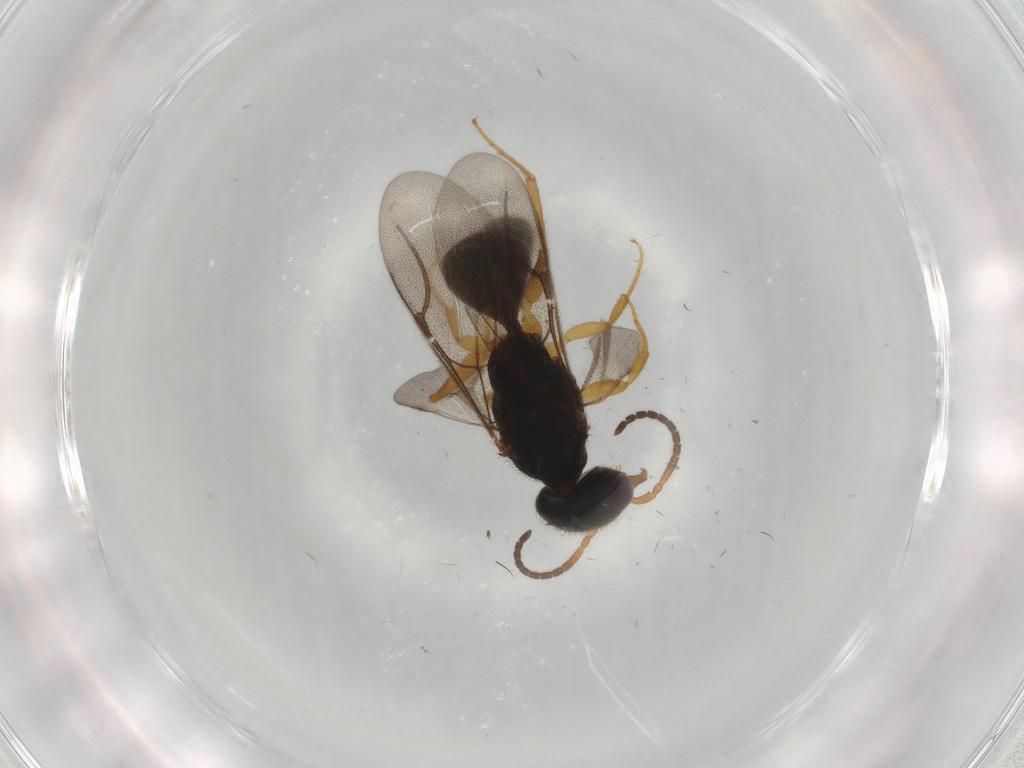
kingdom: Animalia
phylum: Arthropoda
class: Insecta
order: Hymenoptera
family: Bethylidae
